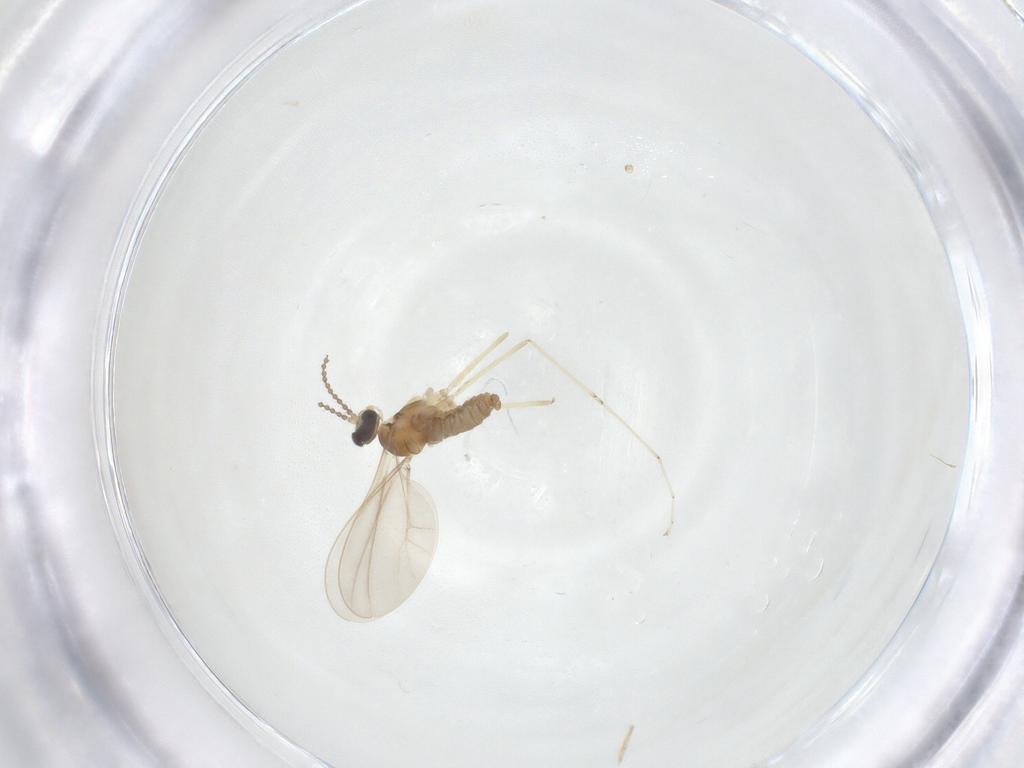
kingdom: Animalia
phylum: Arthropoda
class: Insecta
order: Diptera
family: Cecidomyiidae
